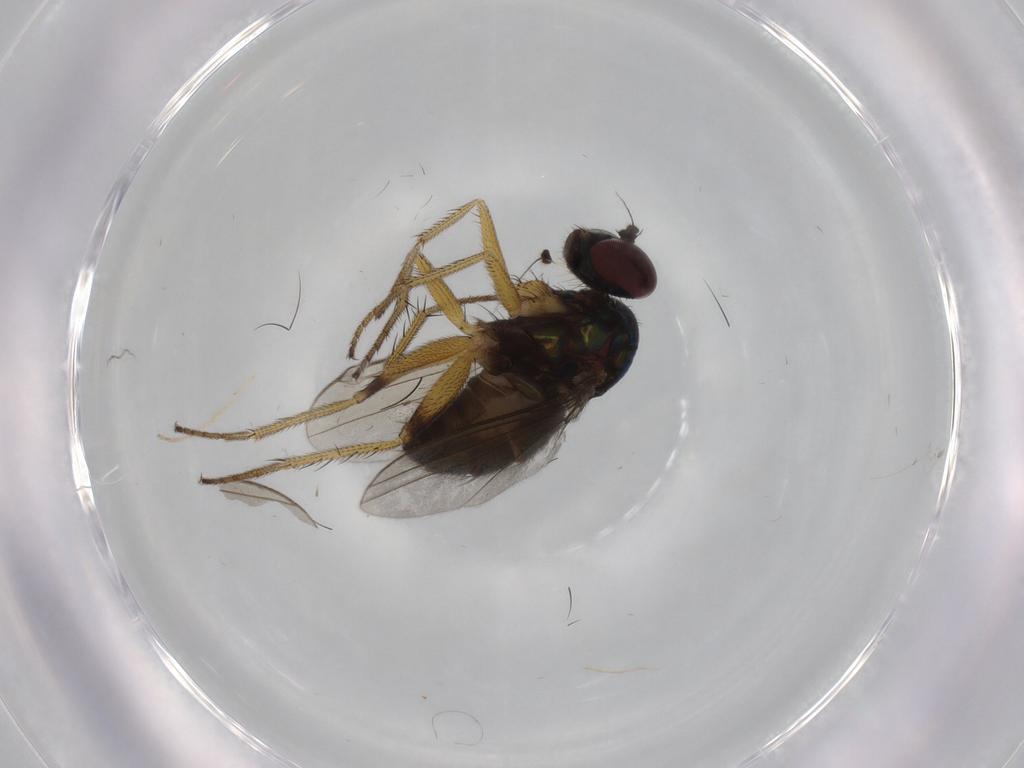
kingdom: Animalia
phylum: Arthropoda
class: Insecta
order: Diptera
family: Dolichopodidae
